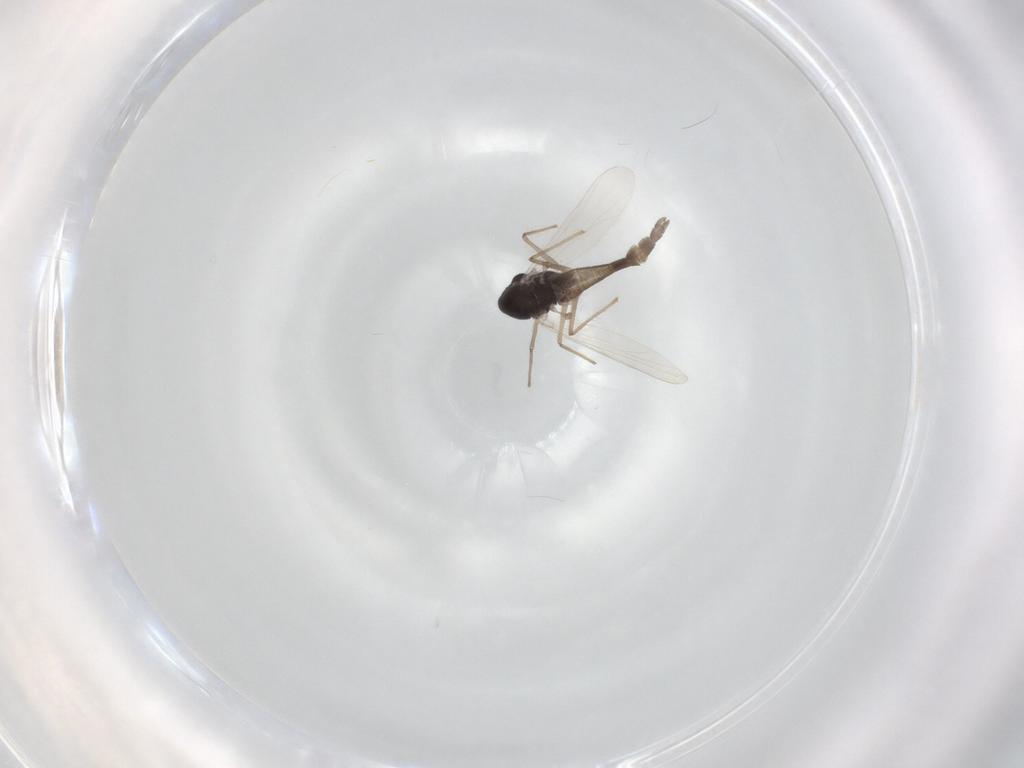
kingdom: Animalia
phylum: Arthropoda
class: Insecta
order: Diptera
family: Chironomidae
